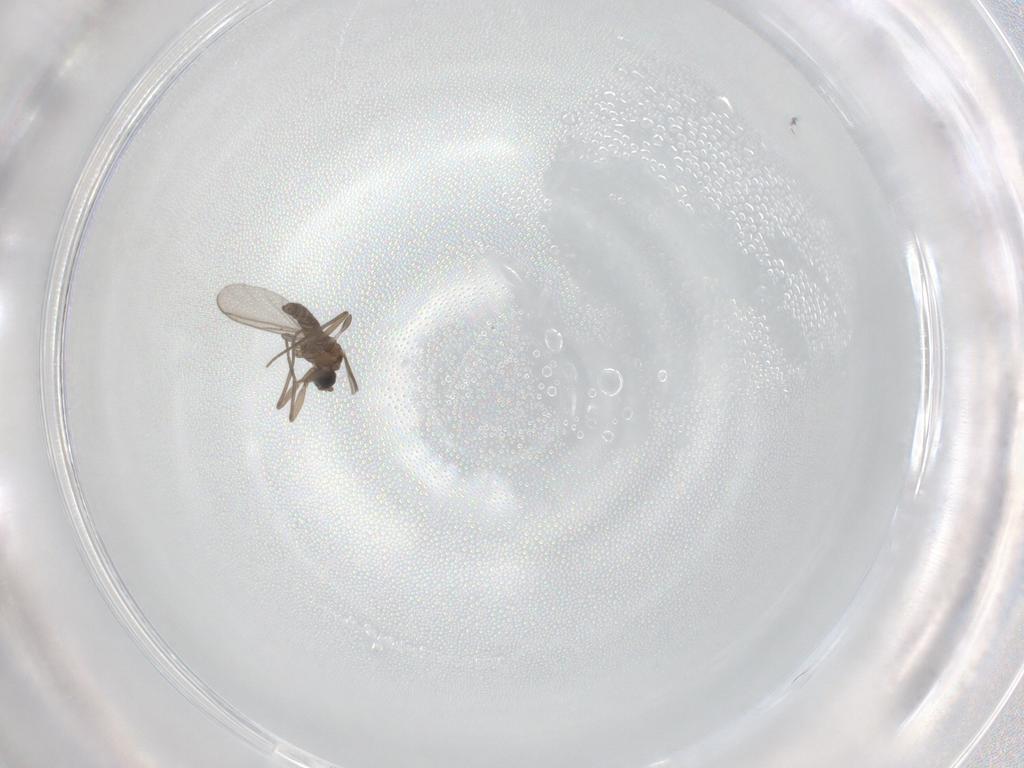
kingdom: Animalia
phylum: Arthropoda
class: Insecta
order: Diptera
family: Sciaridae
